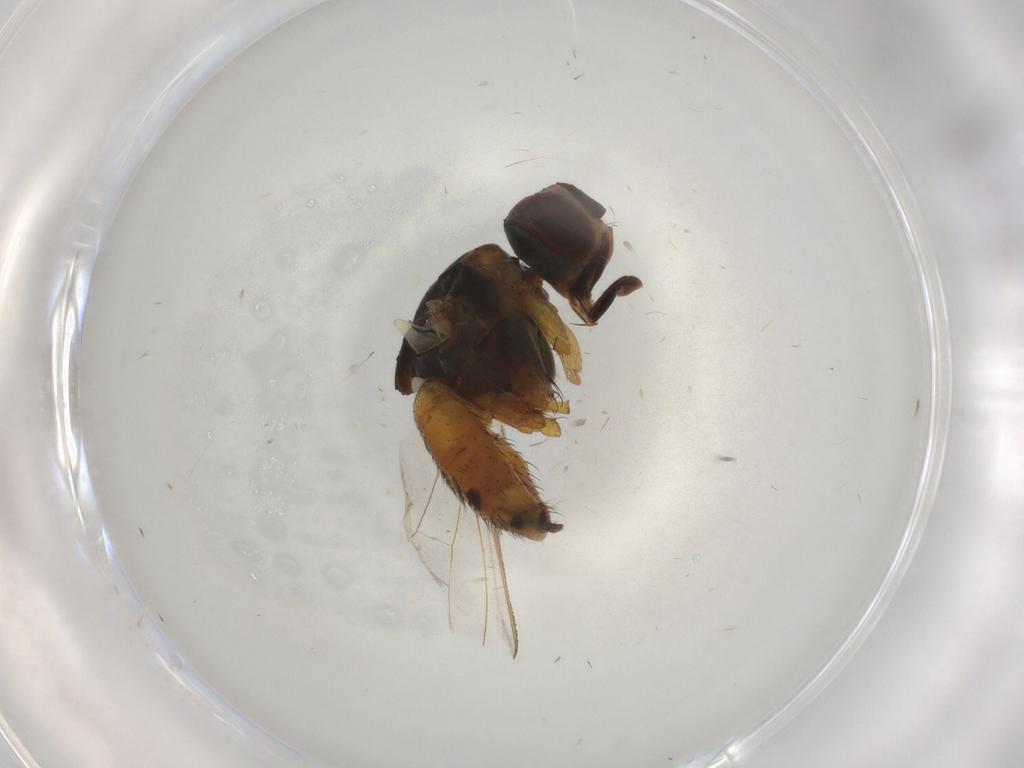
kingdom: Animalia
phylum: Arthropoda
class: Insecta
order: Diptera
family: Muscidae
